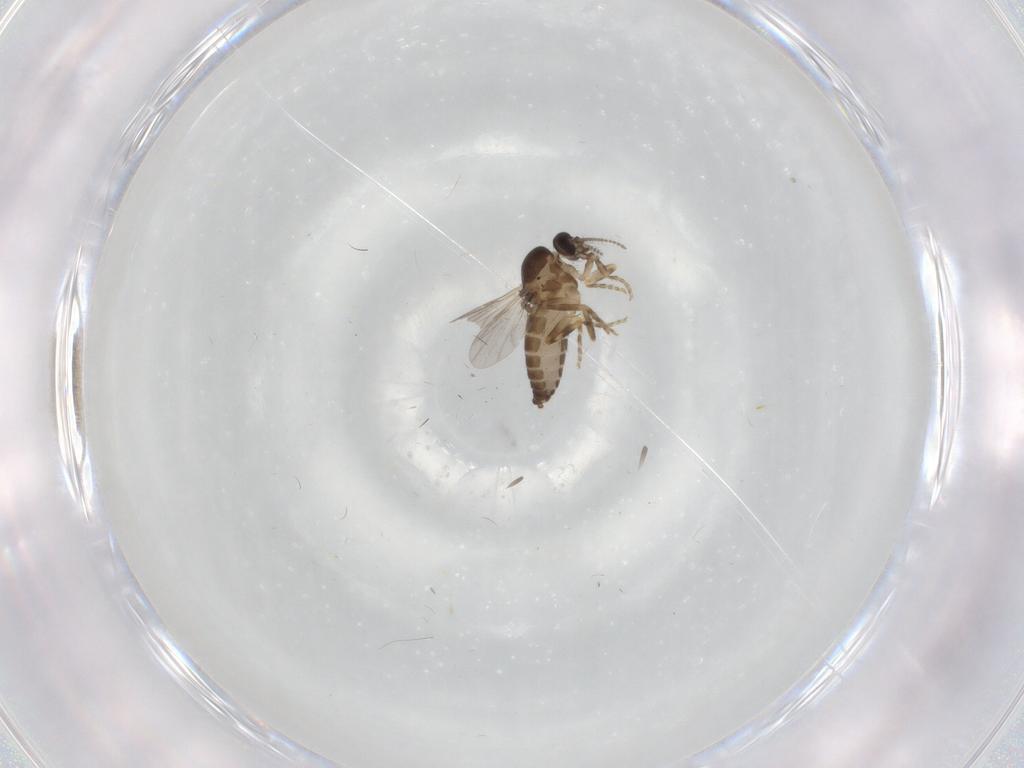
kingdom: Animalia
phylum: Arthropoda
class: Insecta
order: Diptera
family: Ceratopogonidae
